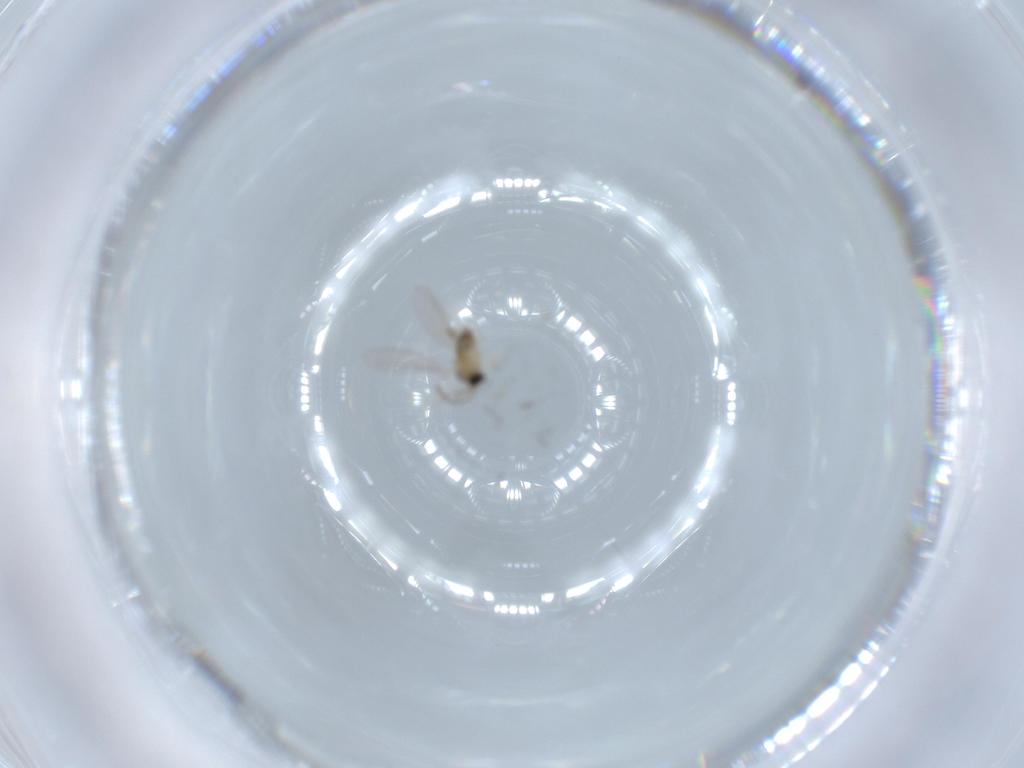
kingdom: Animalia
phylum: Arthropoda
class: Insecta
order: Diptera
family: Cecidomyiidae
